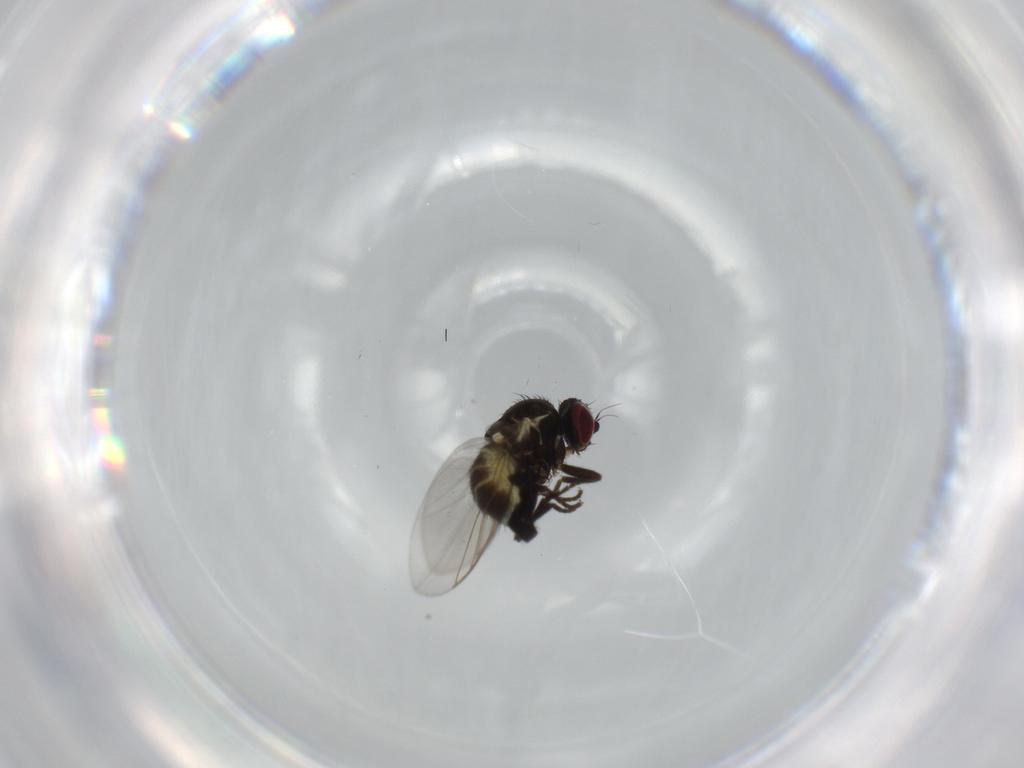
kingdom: Animalia
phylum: Arthropoda
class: Insecta
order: Diptera
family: Agromyzidae
